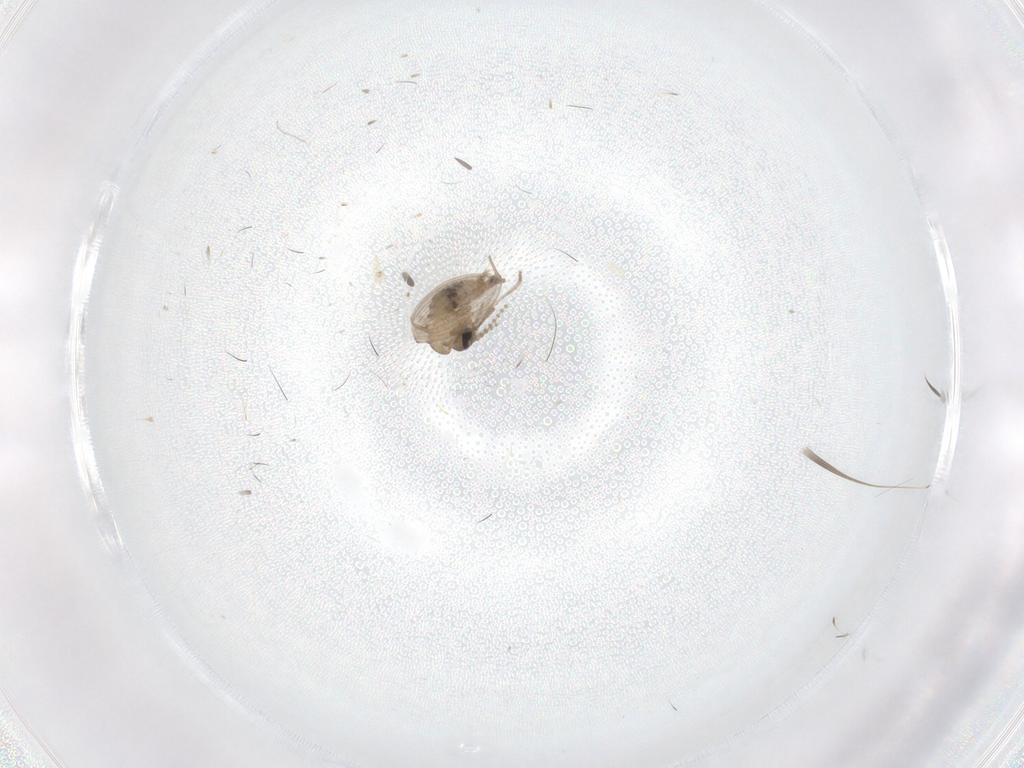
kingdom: Animalia
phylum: Arthropoda
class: Insecta
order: Diptera
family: Psychodidae
